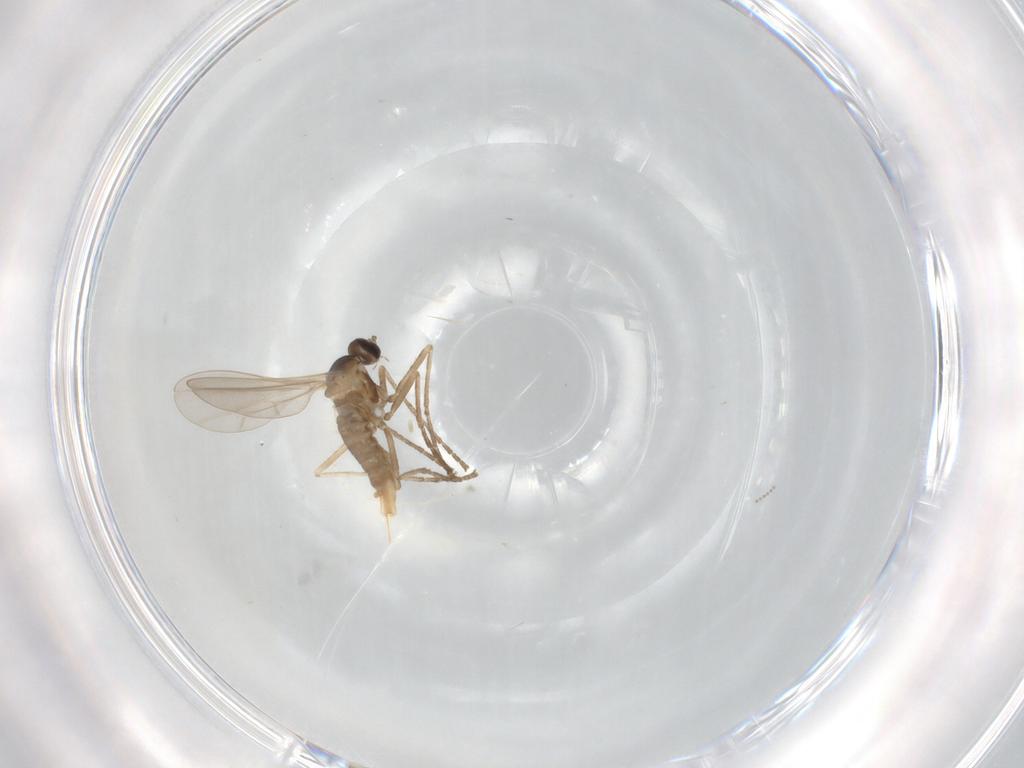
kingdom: Animalia
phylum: Arthropoda
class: Insecta
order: Diptera
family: Cecidomyiidae
